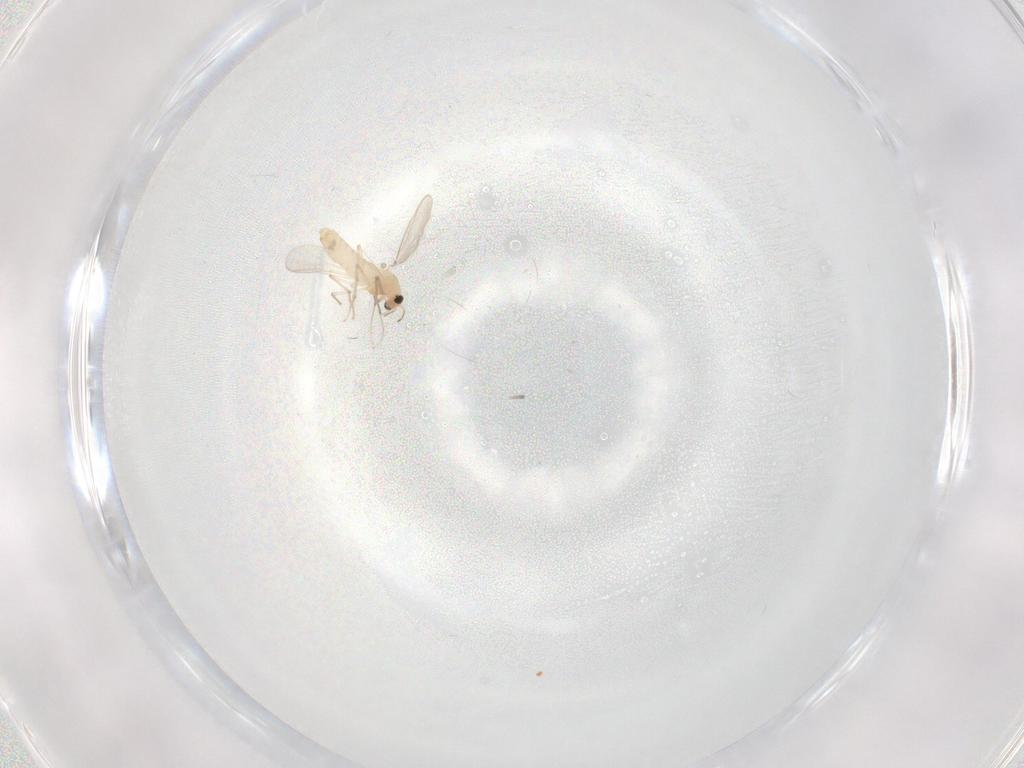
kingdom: Animalia
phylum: Arthropoda
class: Insecta
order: Diptera
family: Chironomidae
